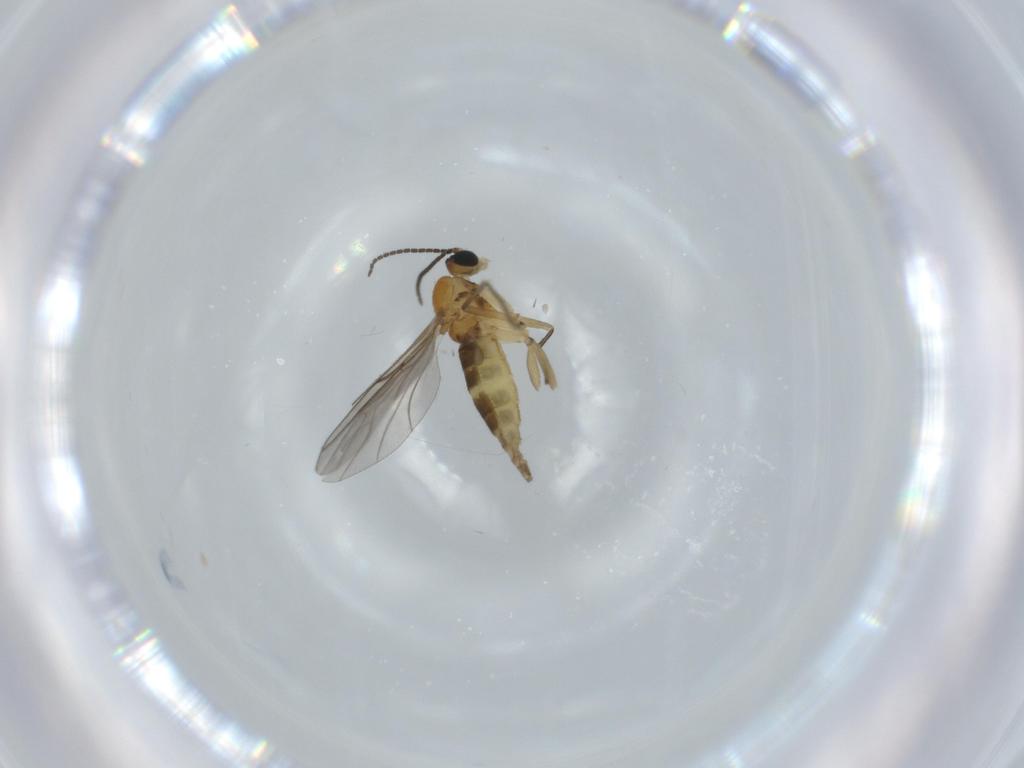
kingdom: Animalia
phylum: Arthropoda
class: Insecta
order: Diptera
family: Sciaridae
